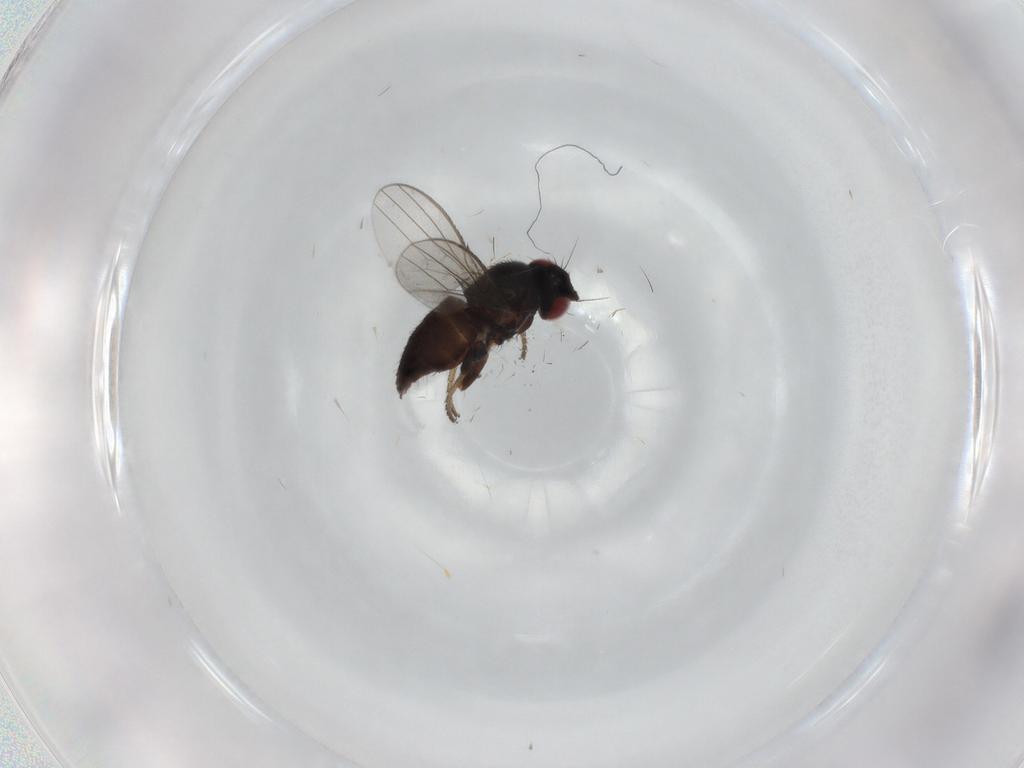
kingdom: Animalia
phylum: Arthropoda
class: Insecta
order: Diptera
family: Milichiidae
